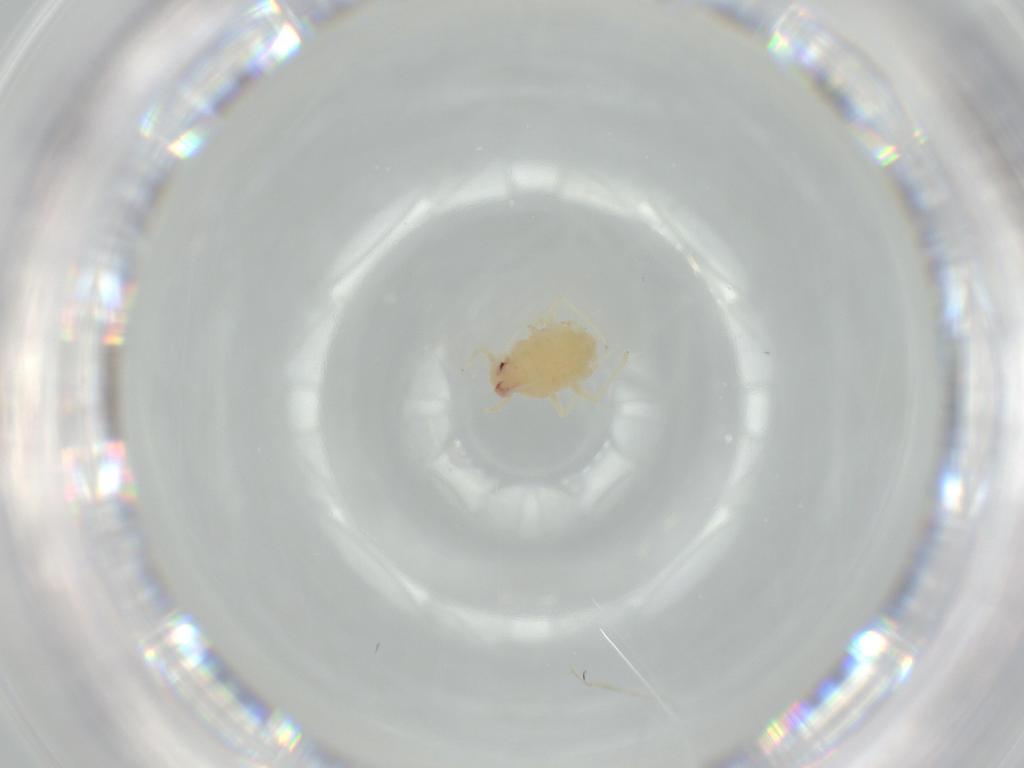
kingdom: Animalia
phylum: Arthropoda
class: Insecta
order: Hemiptera
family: Aphididae
